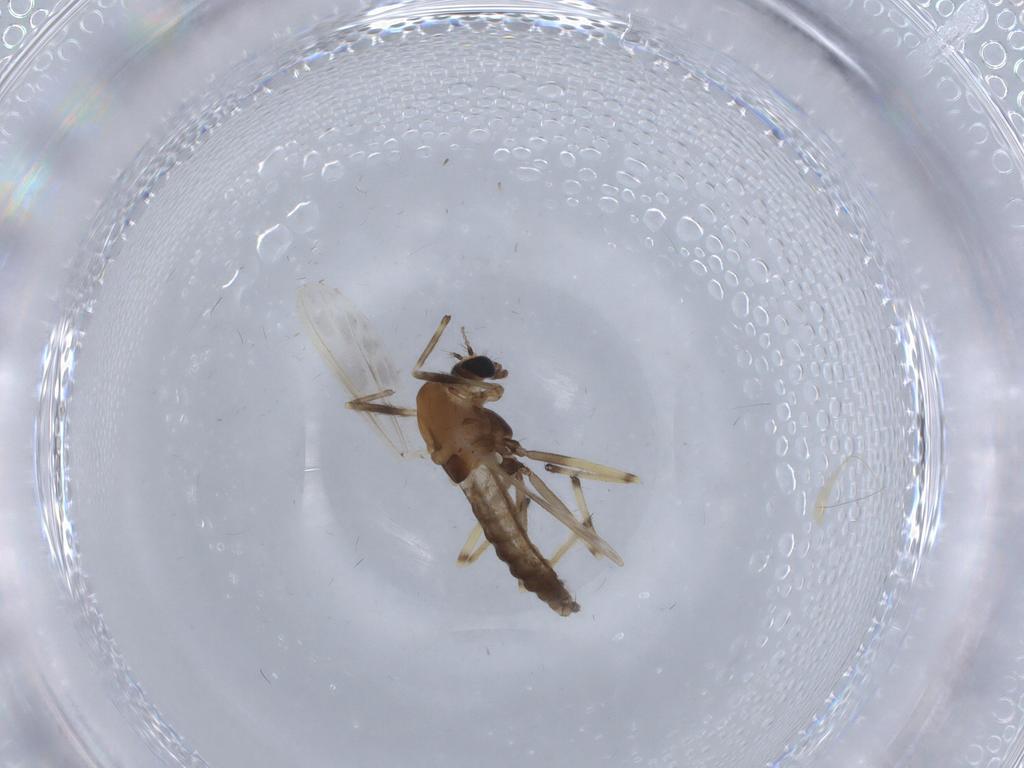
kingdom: Animalia
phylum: Arthropoda
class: Insecta
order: Diptera
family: Chironomidae
